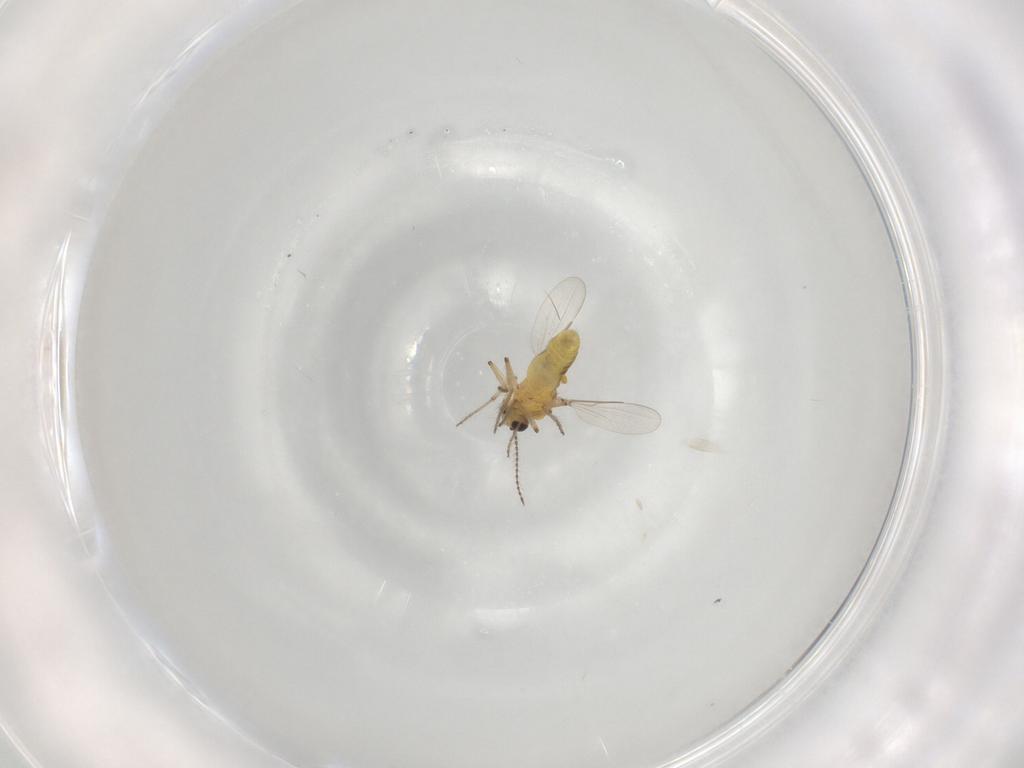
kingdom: Animalia
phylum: Arthropoda
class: Insecta
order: Diptera
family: Ceratopogonidae
